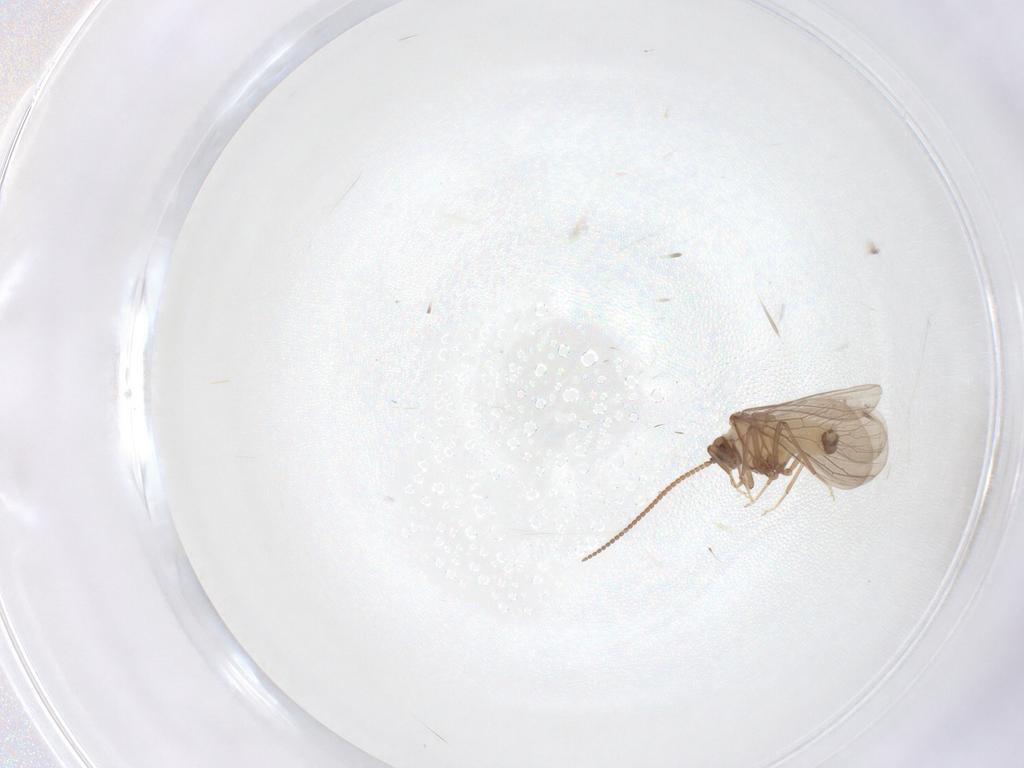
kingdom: Animalia
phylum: Arthropoda
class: Insecta
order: Neuroptera
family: Coniopterygidae
